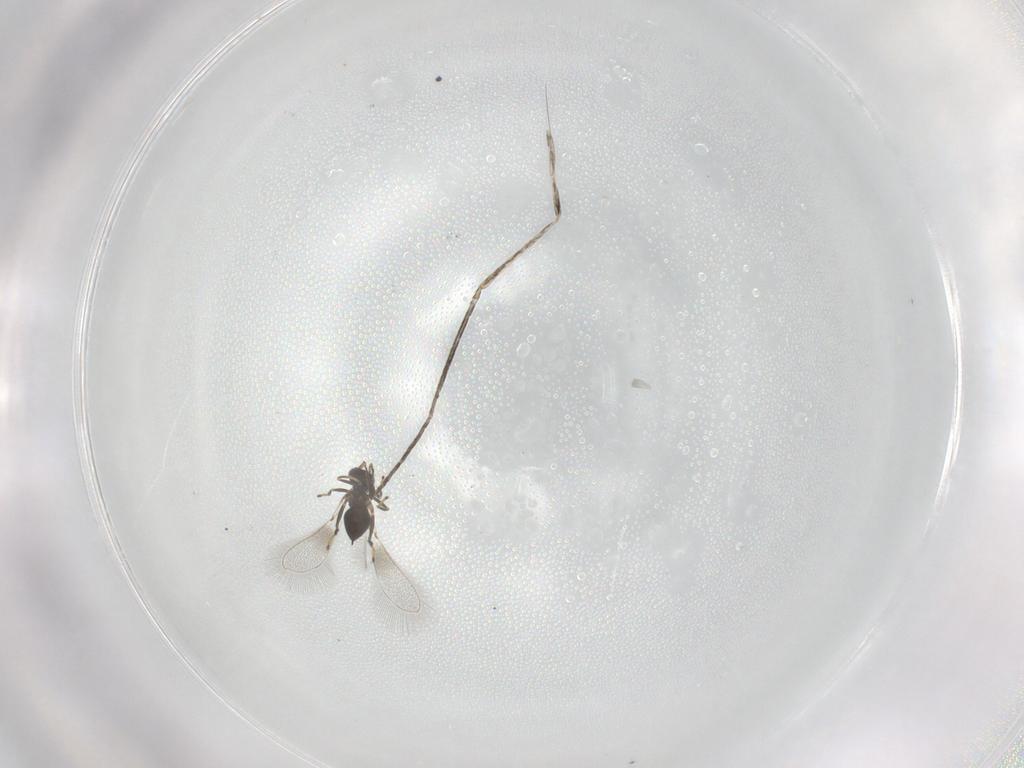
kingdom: Animalia
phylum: Arthropoda
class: Insecta
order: Hymenoptera
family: Mymaridae
